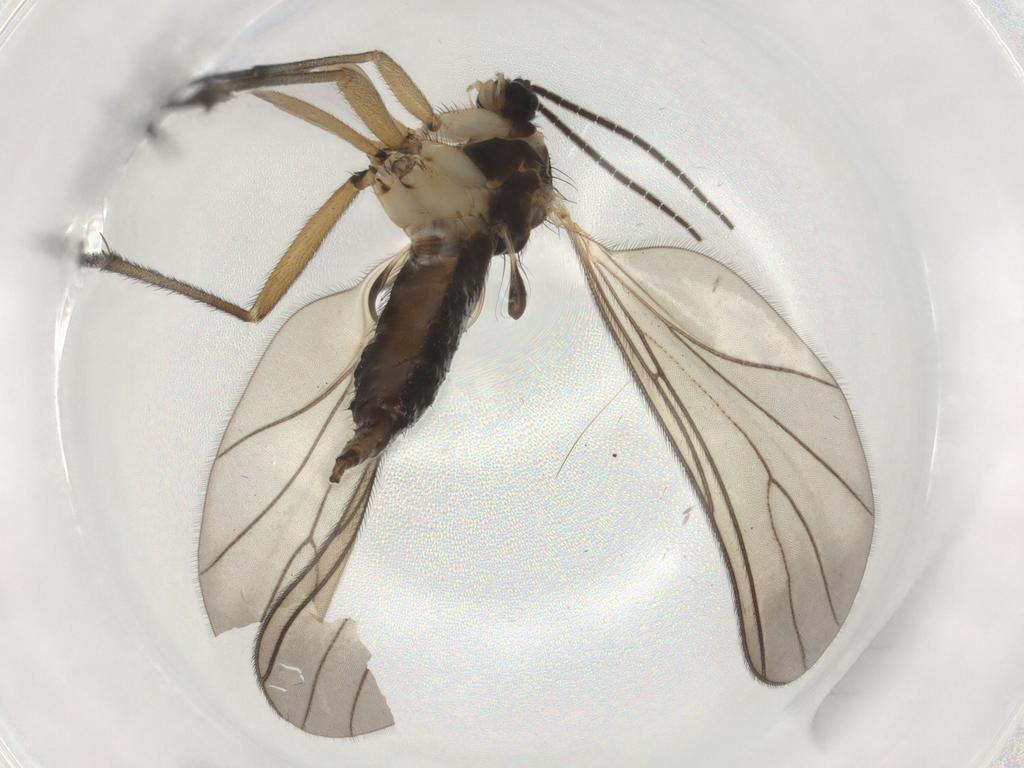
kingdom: Animalia
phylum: Arthropoda
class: Insecta
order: Diptera
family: Sciaridae
